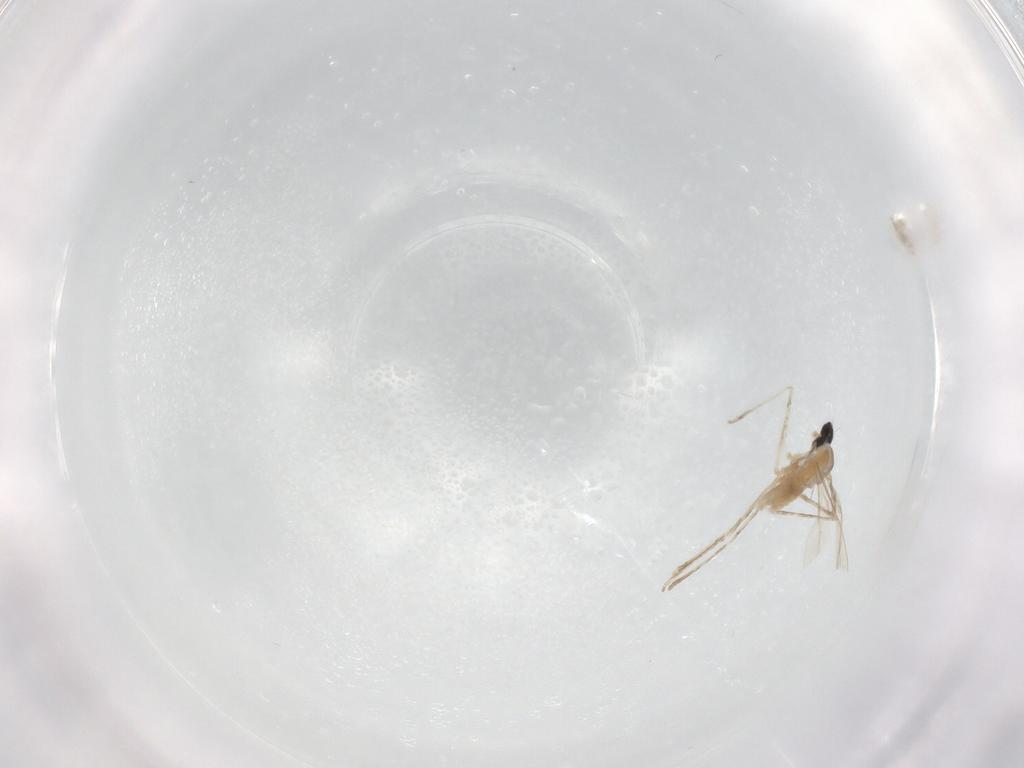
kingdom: Animalia
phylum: Arthropoda
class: Insecta
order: Diptera
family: Cecidomyiidae
